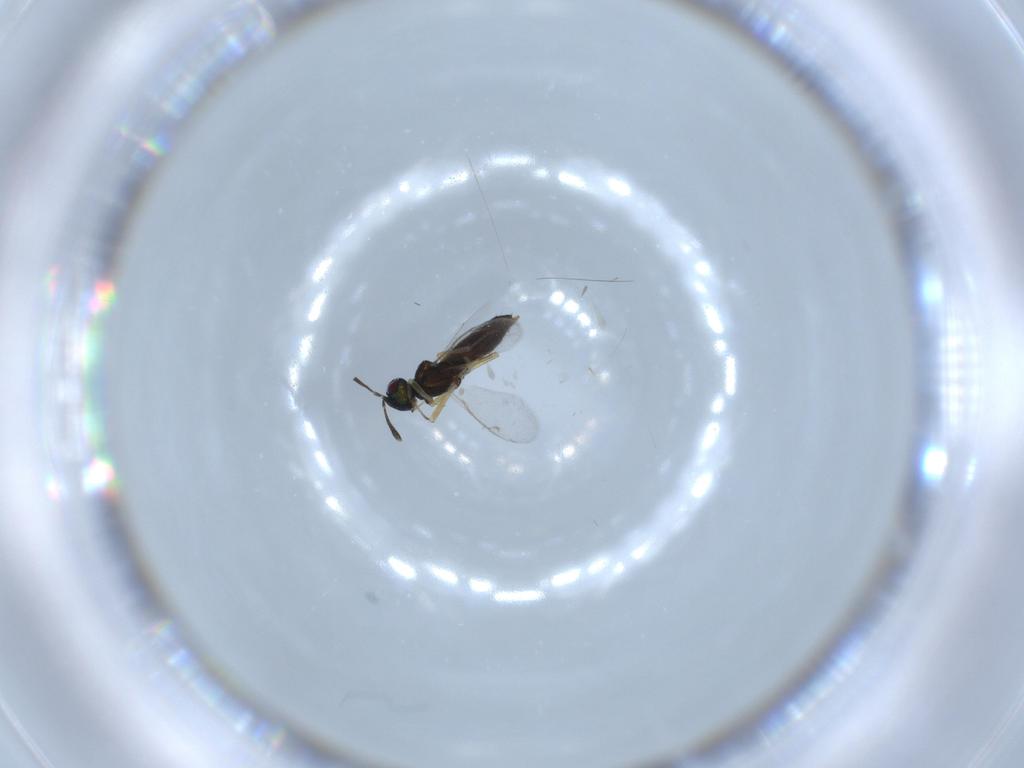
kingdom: Animalia
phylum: Arthropoda
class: Insecta
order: Hymenoptera
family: Eupelmidae
